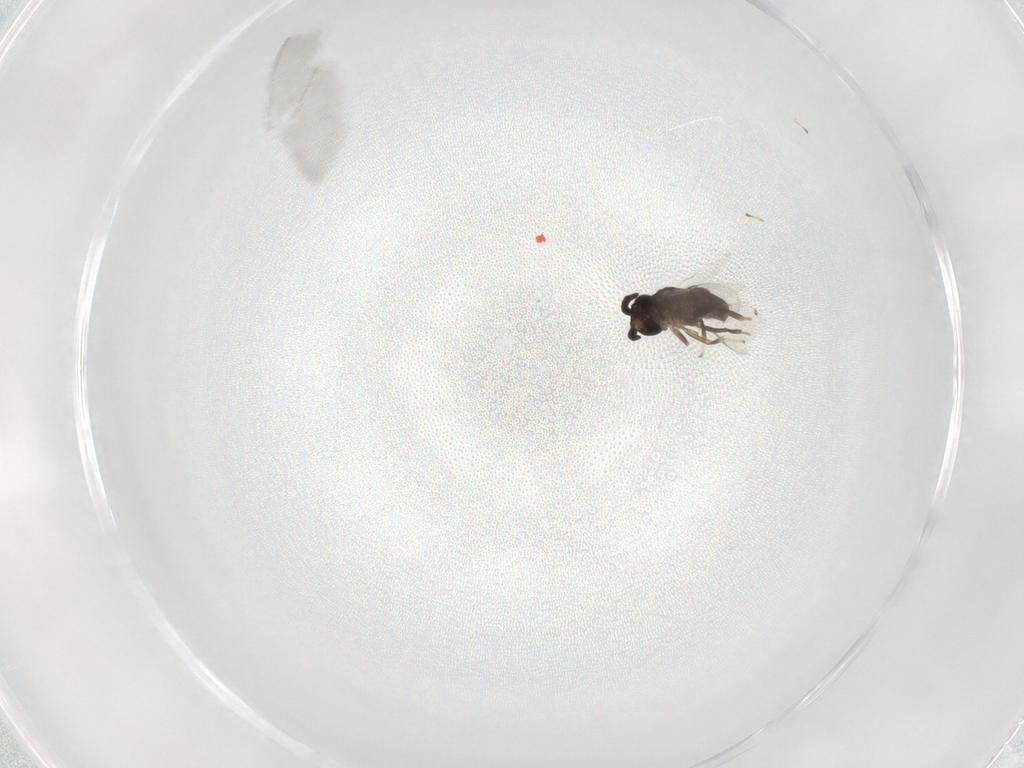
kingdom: Animalia
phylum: Arthropoda
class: Insecta
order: Hymenoptera
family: Encyrtidae
